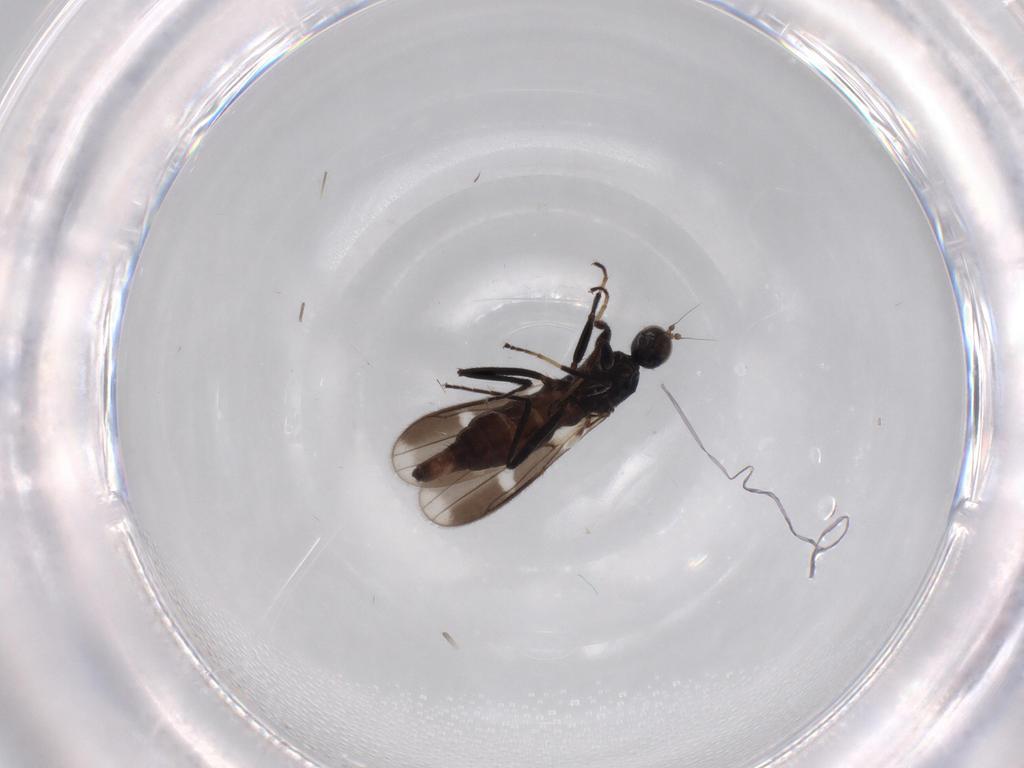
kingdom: Animalia
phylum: Arthropoda
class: Insecta
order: Diptera
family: Hybotidae
